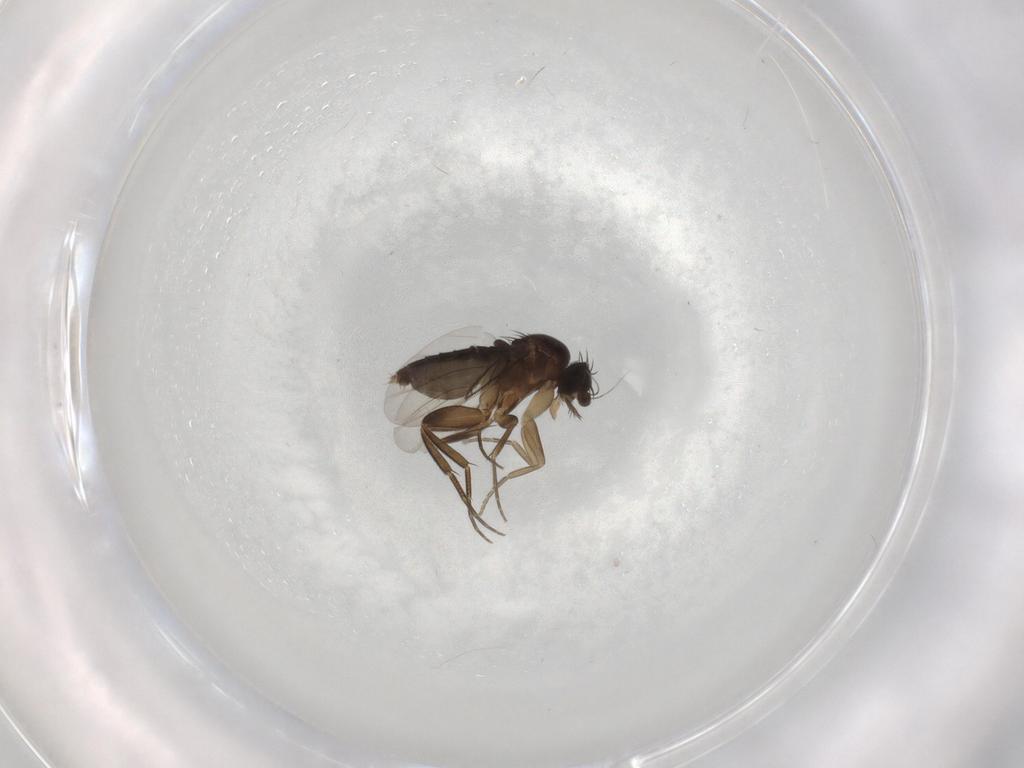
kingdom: Animalia
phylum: Arthropoda
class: Insecta
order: Diptera
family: Phoridae
